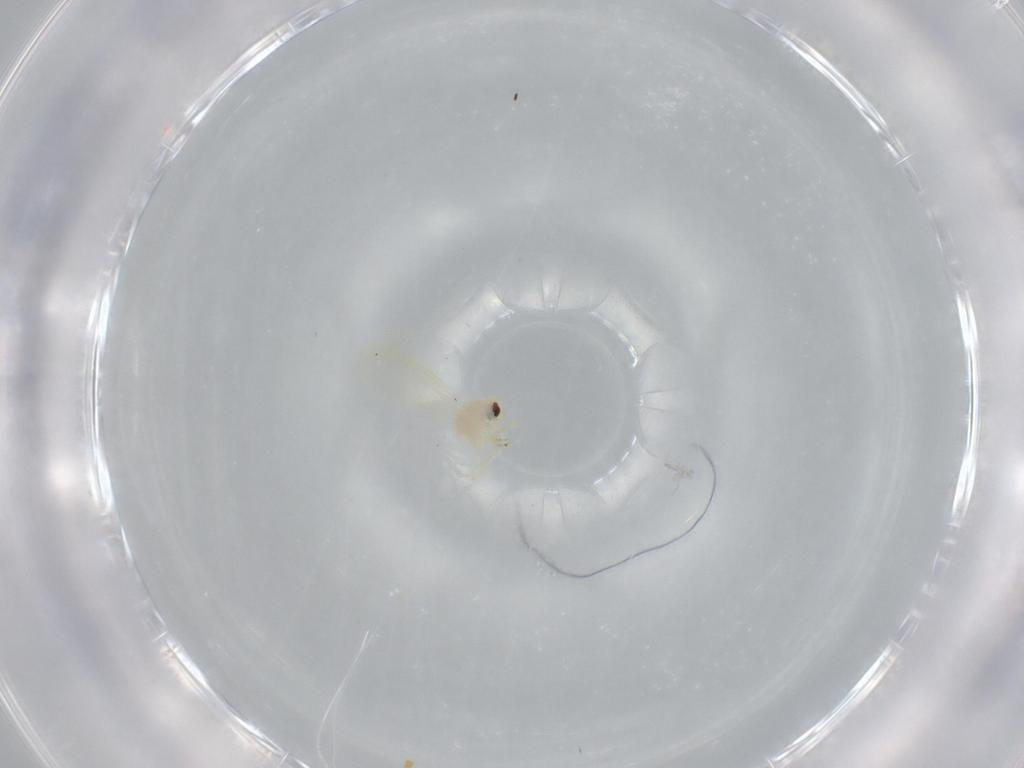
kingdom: Animalia
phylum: Arthropoda
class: Insecta
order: Hemiptera
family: Aleyrodidae
